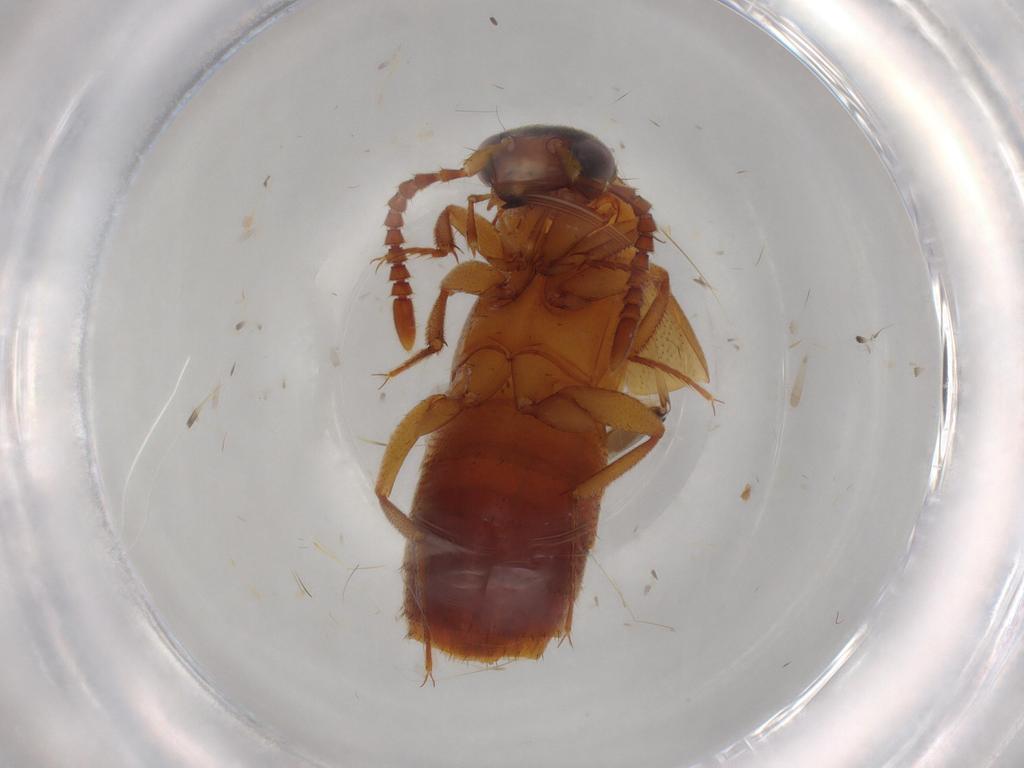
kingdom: Animalia
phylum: Arthropoda
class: Insecta
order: Coleoptera
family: Staphylinidae
